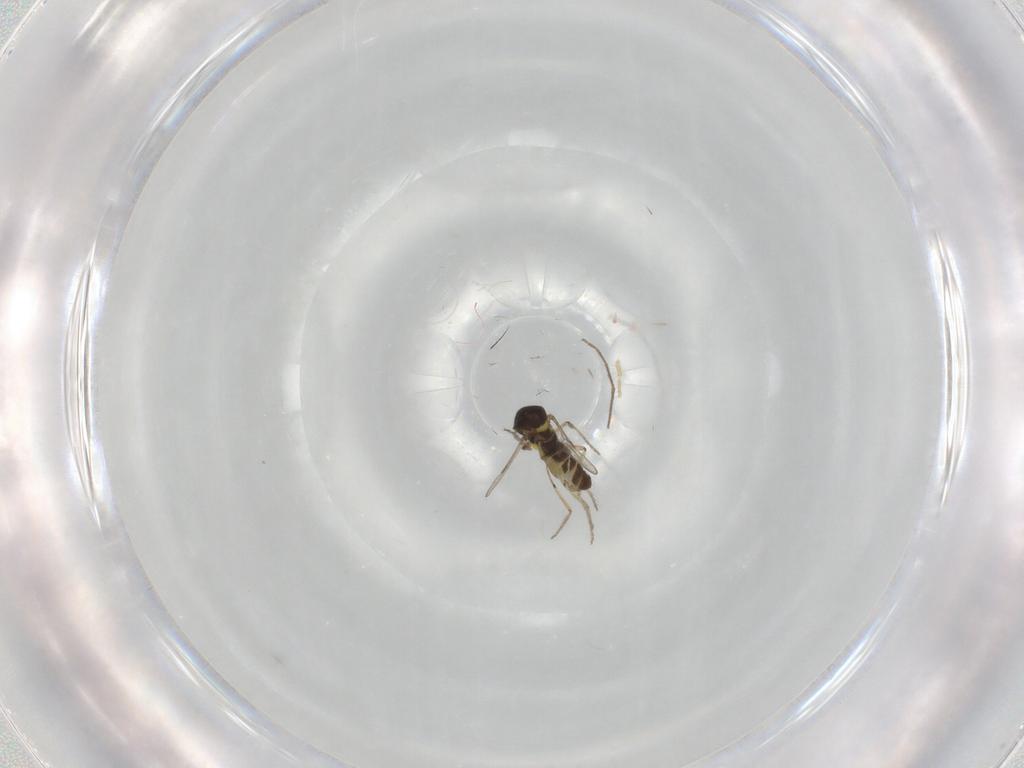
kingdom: Animalia
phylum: Arthropoda
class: Insecta
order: Diptera
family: Ceratopogonidae
